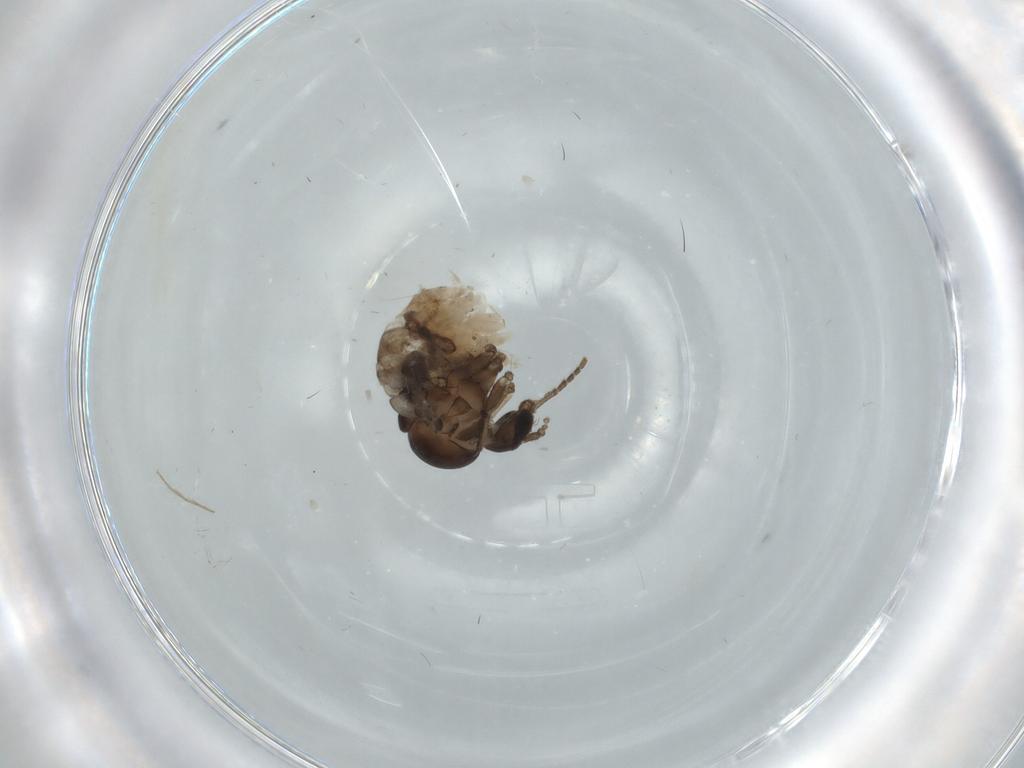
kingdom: Animalia
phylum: Arthropoda
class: Insecta
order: Diptera
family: Psychodidae
